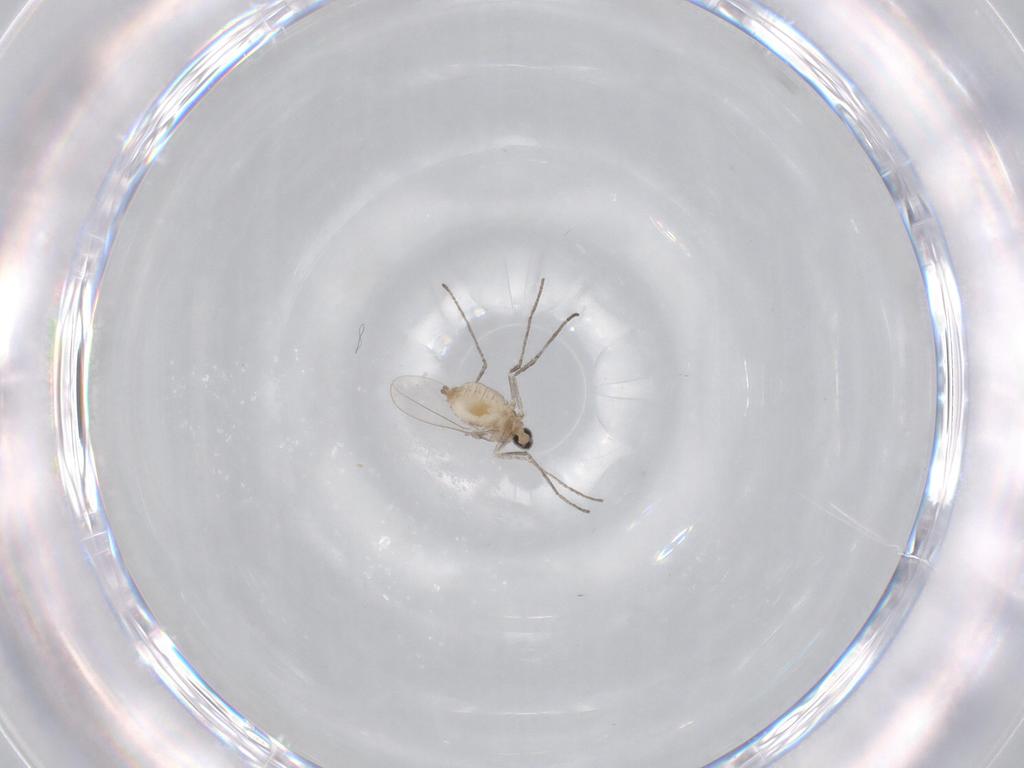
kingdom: Animalia
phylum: Arthropoda
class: Insecta
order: Diptera
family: Cecidomyiidae
